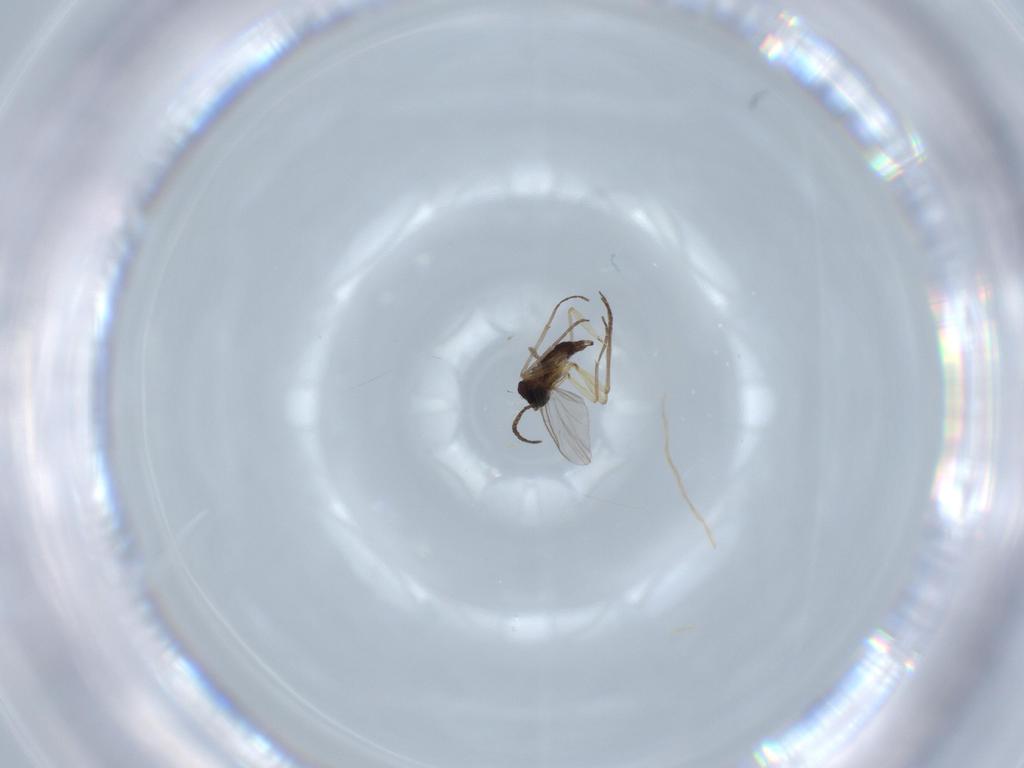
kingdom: Animalia
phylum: Arthropoda
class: Insecta
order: Diptera
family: Sciaridae
